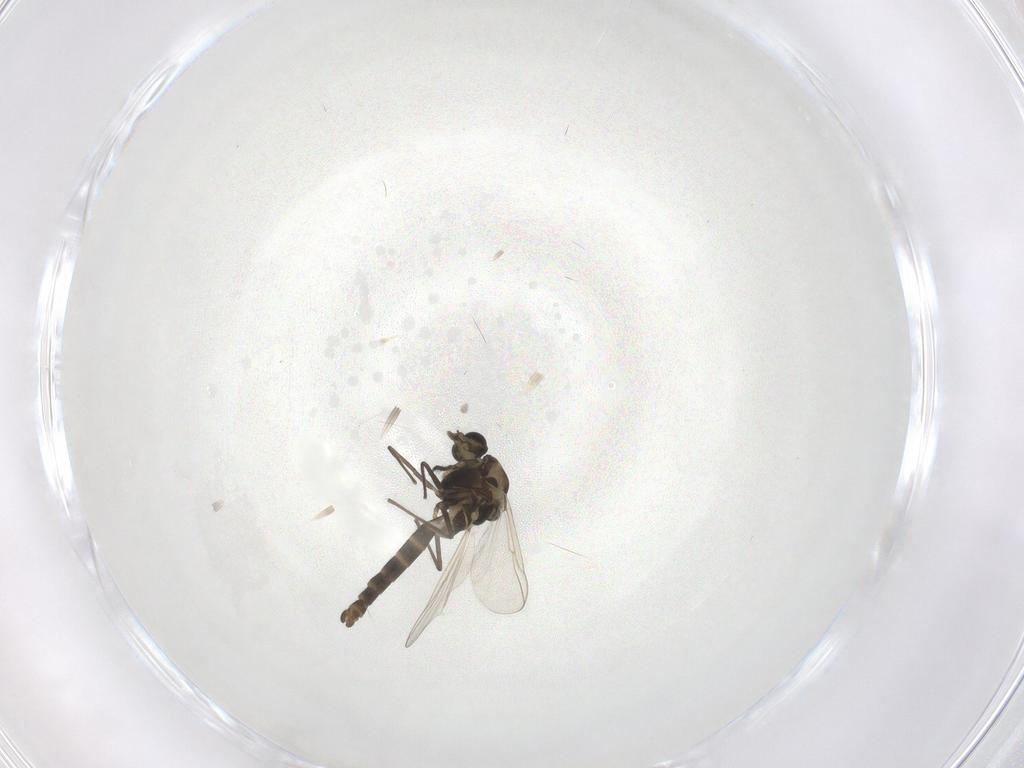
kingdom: Animalia
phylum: Arthropoda
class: Insecta
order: Diptera
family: Chironomidae
